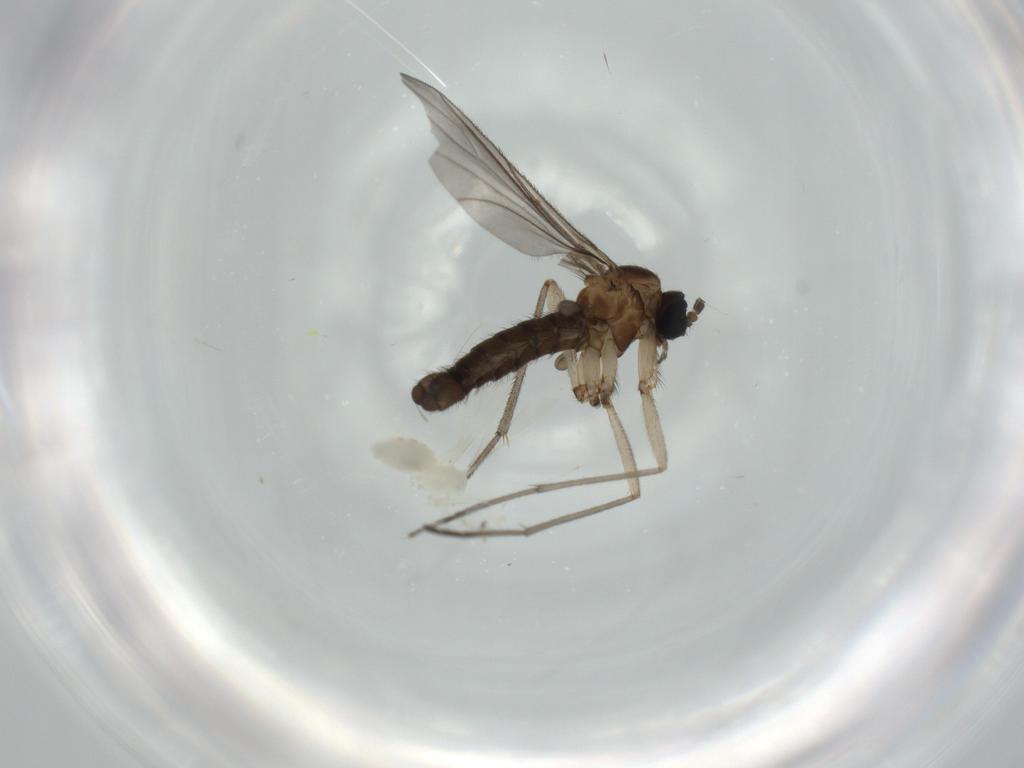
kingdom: Animalia
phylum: Arthropoda
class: Insecta
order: Diptera
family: Sciaridae
